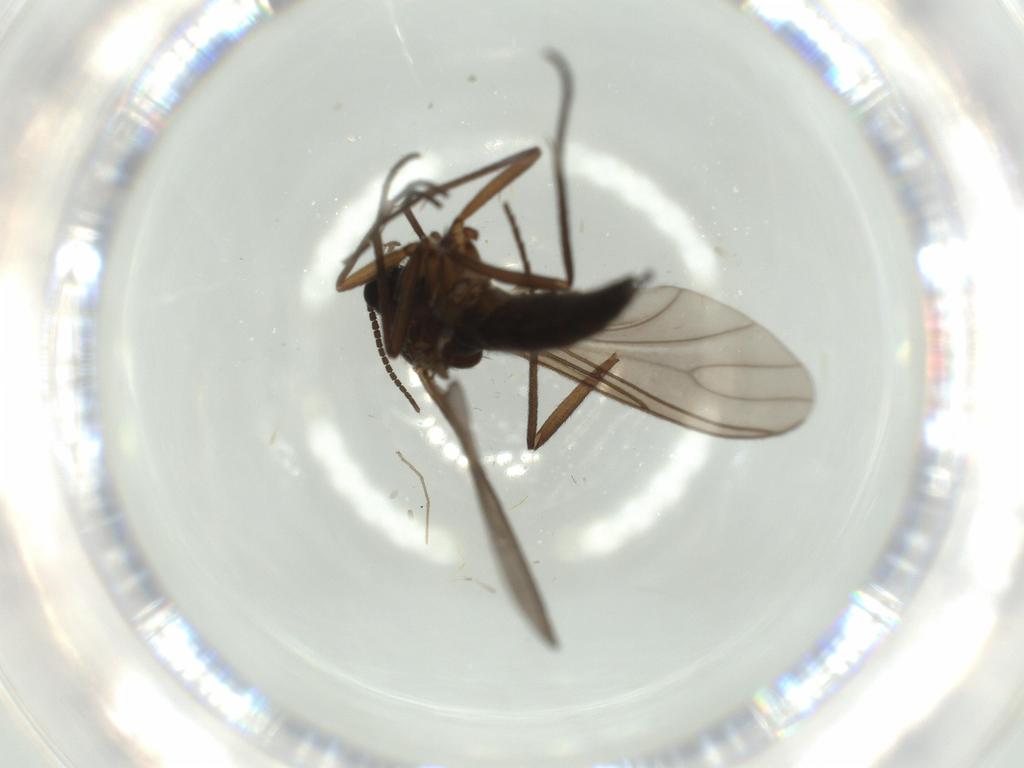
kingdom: Animalia
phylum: Arthropoda
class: Insecta
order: Diptera
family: Sciaridae
